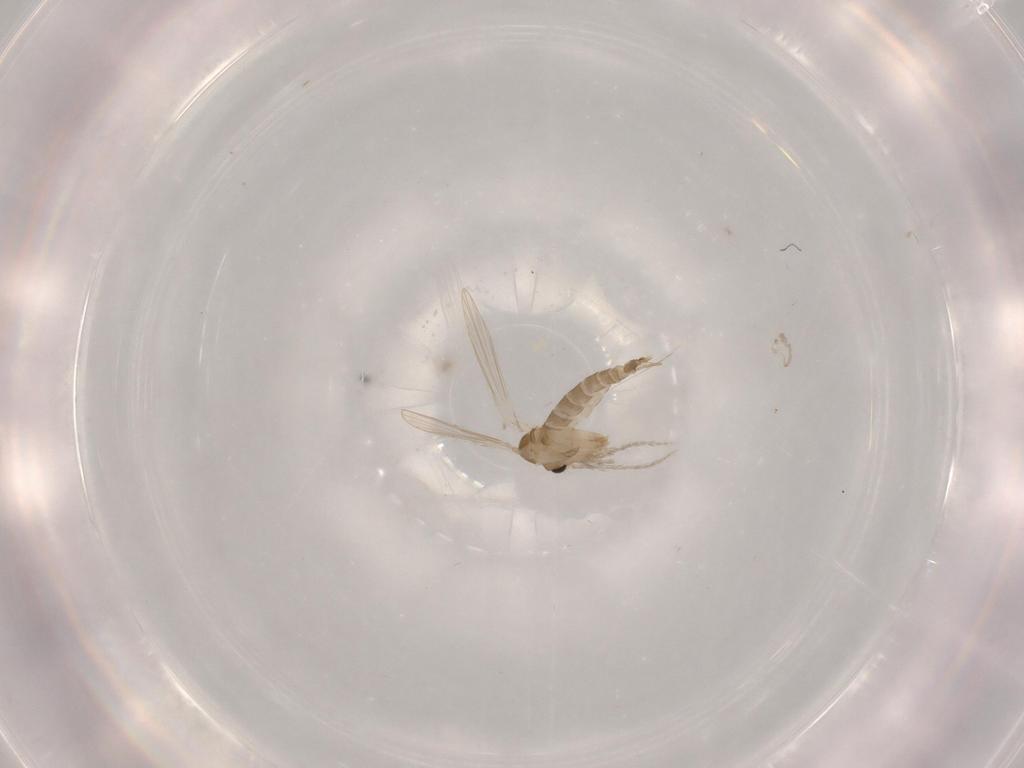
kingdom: Animalia
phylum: Arthropoda
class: Insecta
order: Diptera
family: Psychodidae
